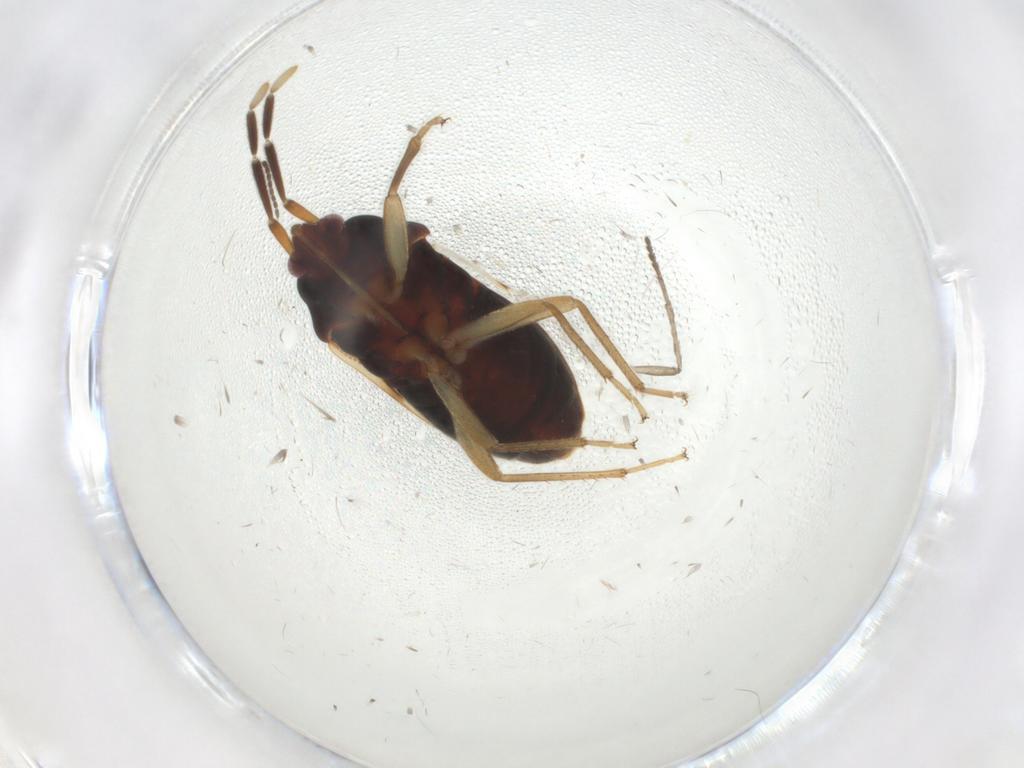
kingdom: Animalia
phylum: Arthropoda
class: Insecta
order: Hemiptera
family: Rhyparochromidae
